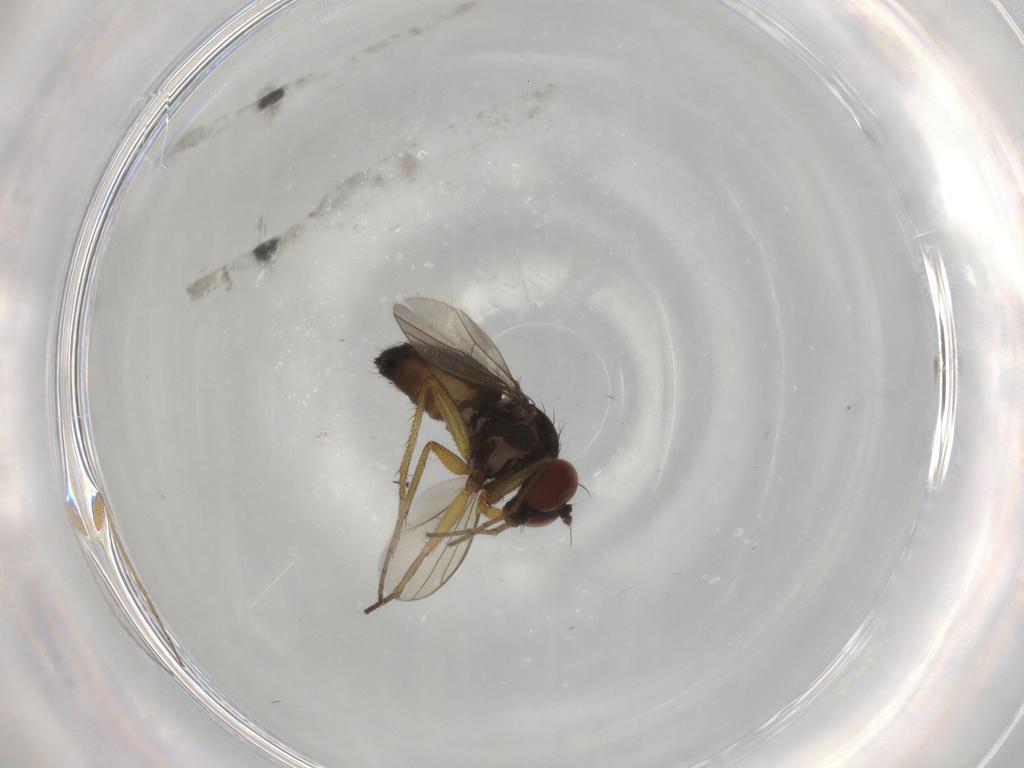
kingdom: Animalia
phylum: Arthropoda
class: Insecta
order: Diptera
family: Dolichopodidae
